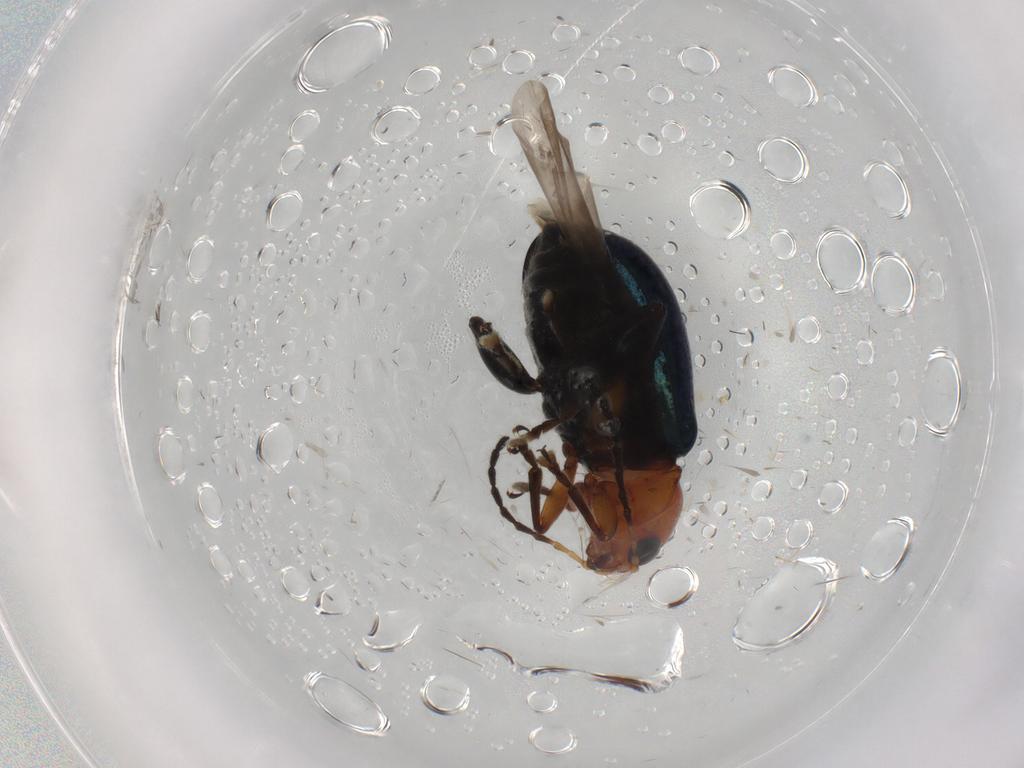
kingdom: Animalia
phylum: Arthropoda
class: Insecta
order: Coleoptera
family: Chrysomelidae
